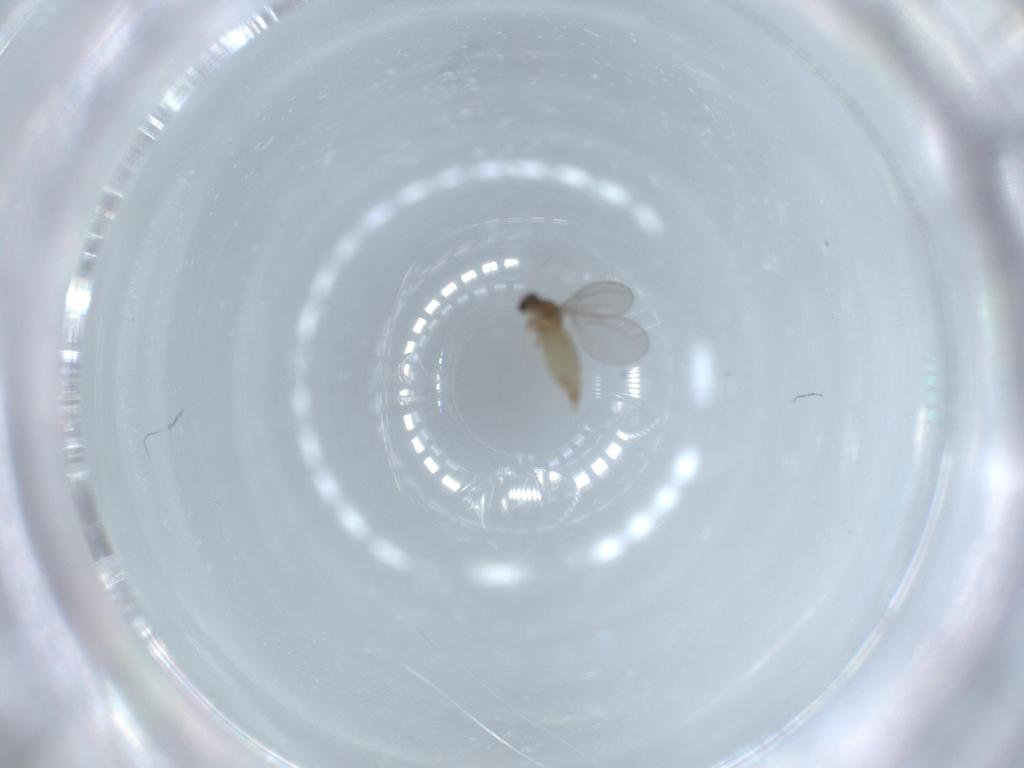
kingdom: Animalia
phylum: Arthropoda
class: Insecta
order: Diptera
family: Cecidomyiidae
